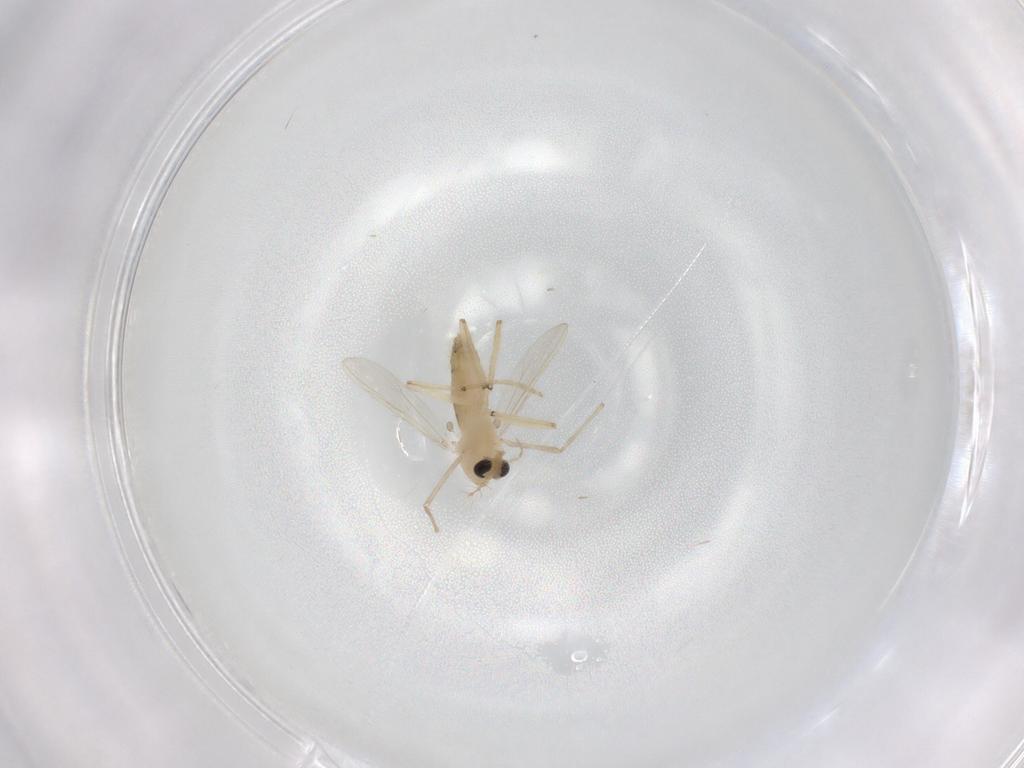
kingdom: Animalia
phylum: Arthropoda
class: Insecta
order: Diptera
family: Chironomidae
